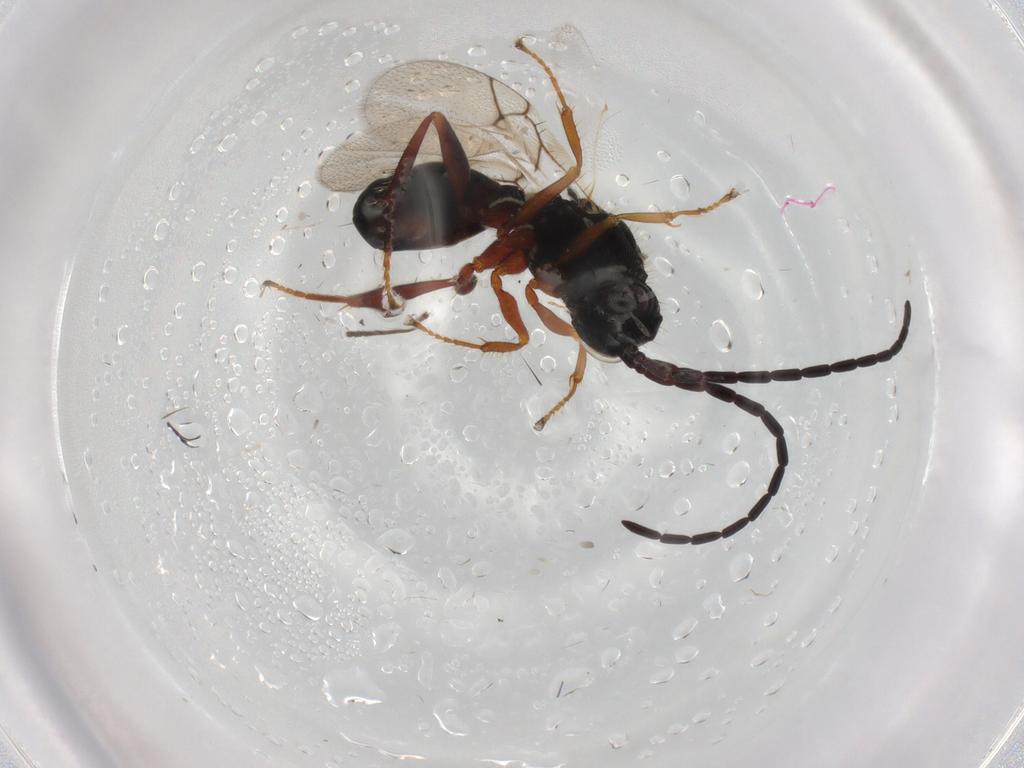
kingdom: Animalia
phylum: Arthropoda
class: Insecta
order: Hymenoptera
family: Figitidae
